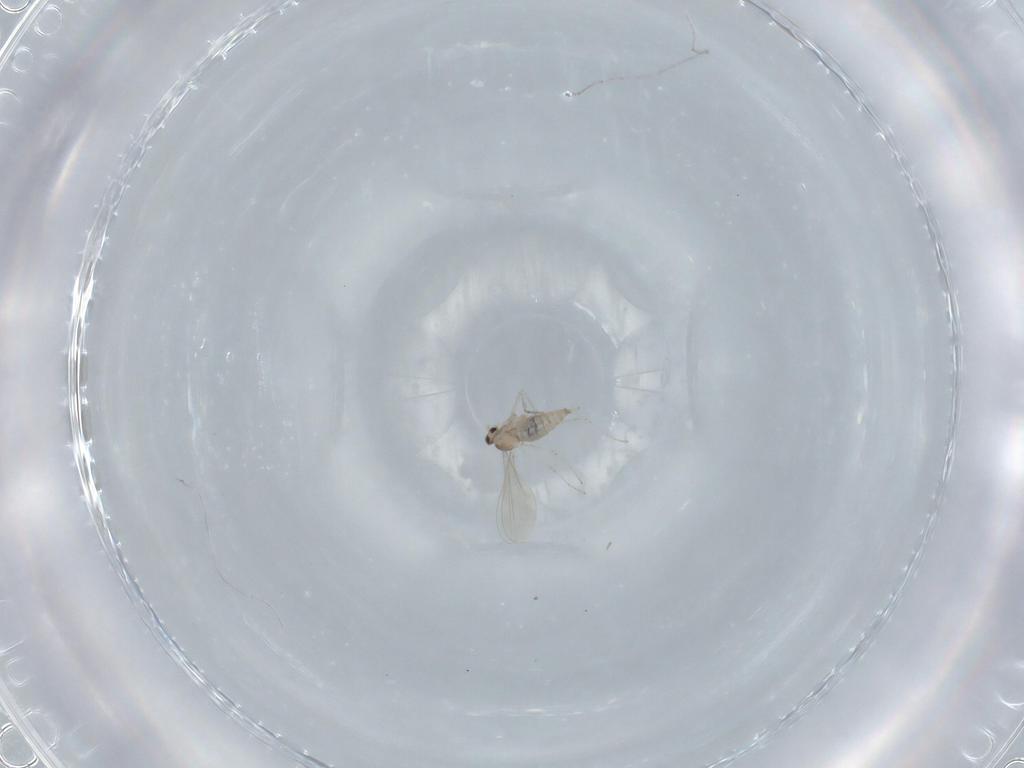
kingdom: Animalia
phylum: Arthropoda
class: Insecta
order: Diptera
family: Cecidomyiidae
